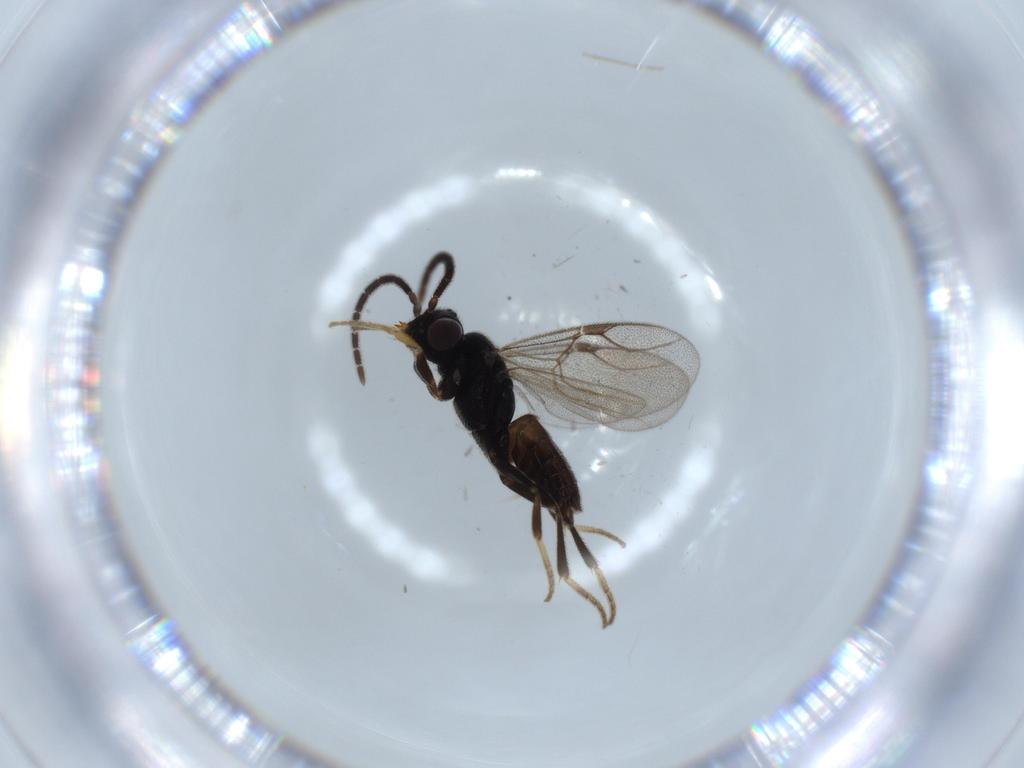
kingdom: Animalia
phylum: Arthropoda
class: Insecta
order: Hymenoptera
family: Dryinidae
